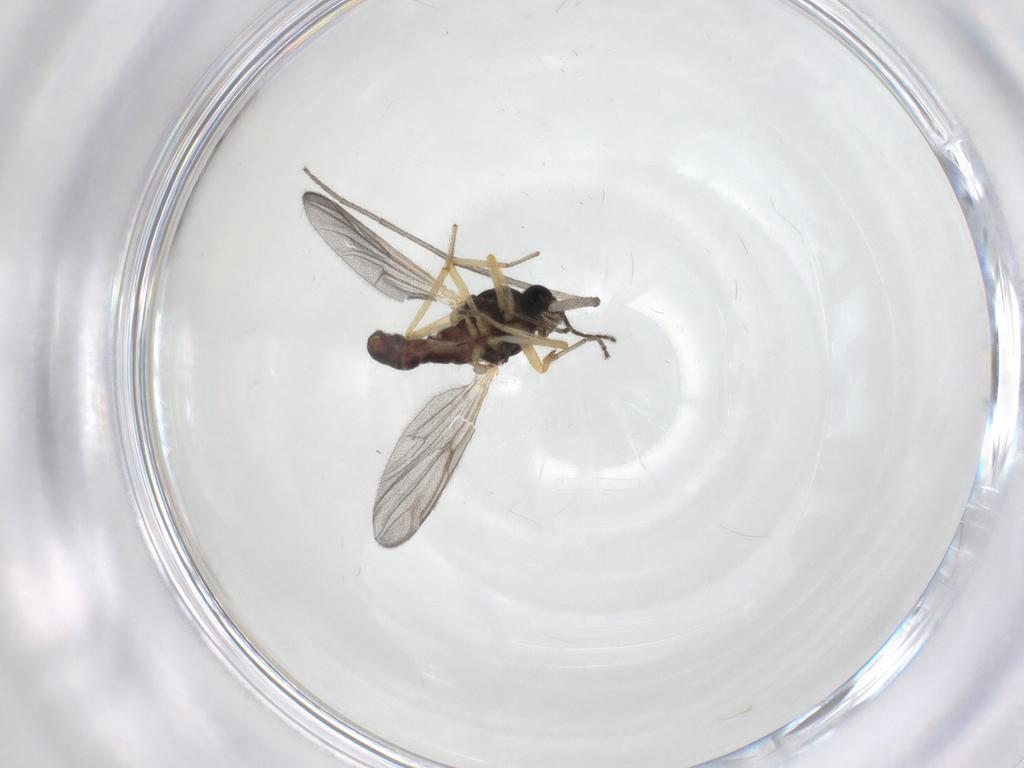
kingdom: Animalia
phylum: Arthropoda
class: Insecta
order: Diptera
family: Ceratopogonidae
